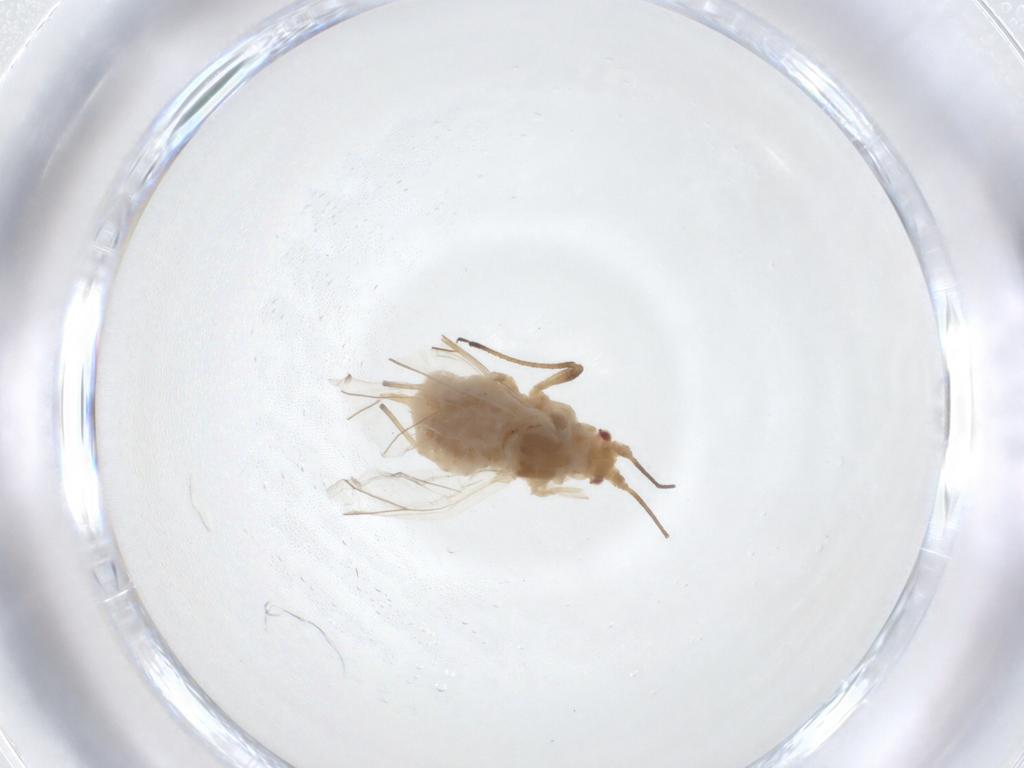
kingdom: Animalia
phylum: Arthropoda
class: Insecta
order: Hemiptera
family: Aphididae
